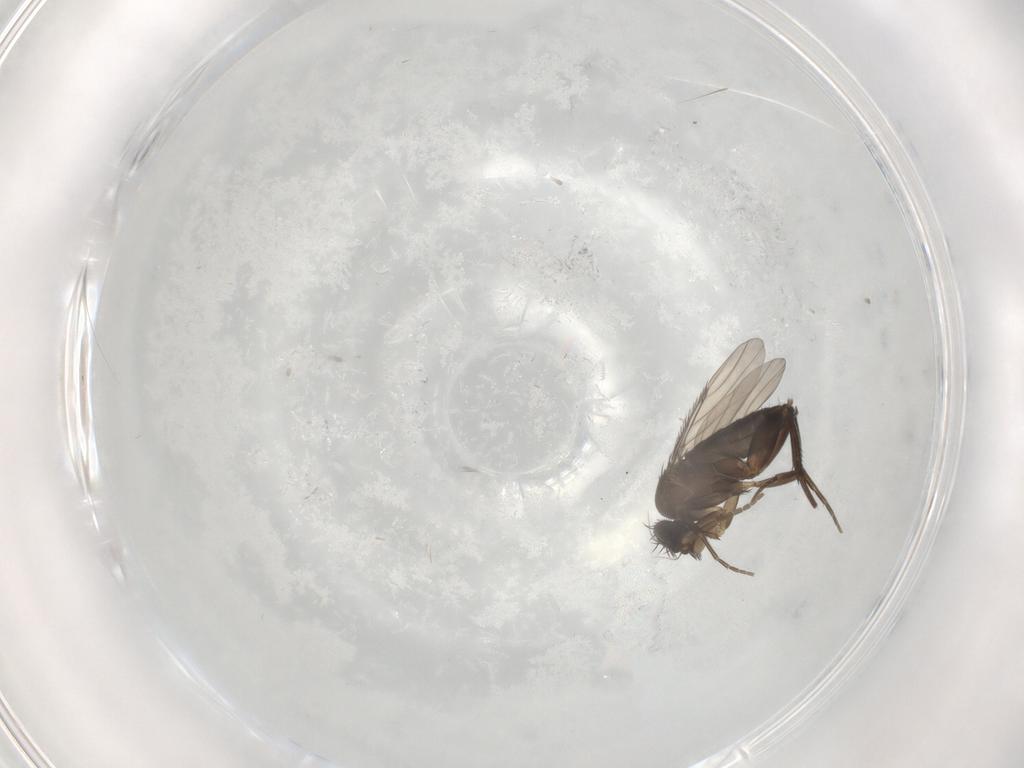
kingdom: Animalia
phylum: Arthropoda
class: Insecta
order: Diptera
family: Phoridae
